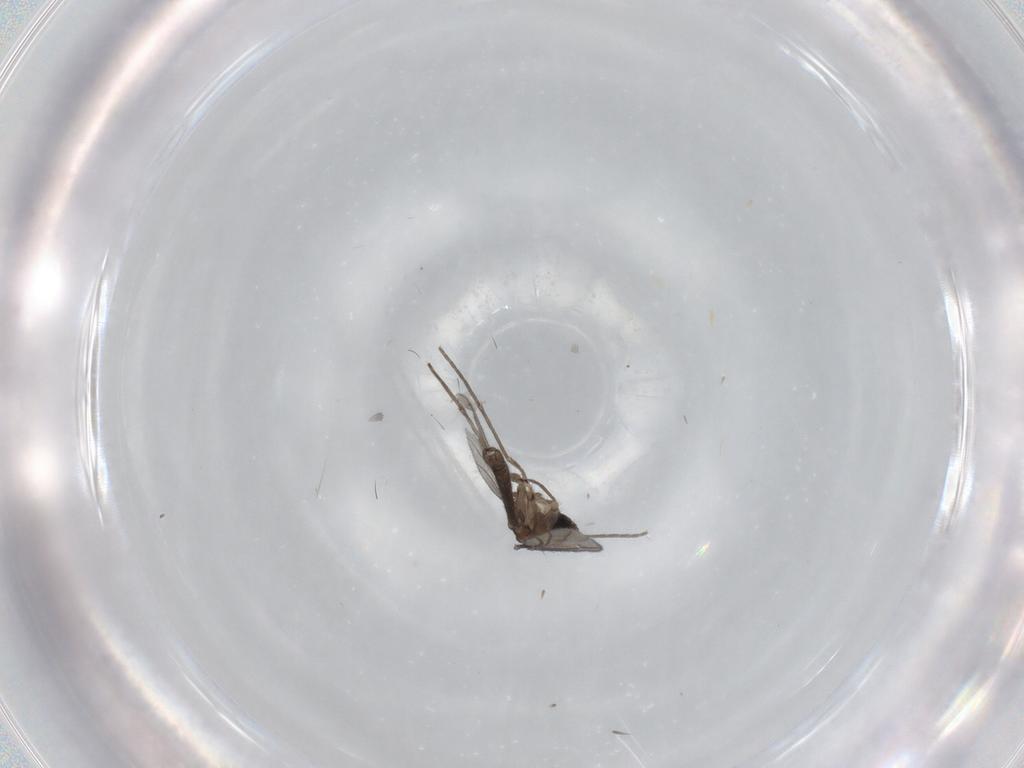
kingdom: Animalia
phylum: Arthropoda
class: Insecta
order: Diptera
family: Sciaridae
